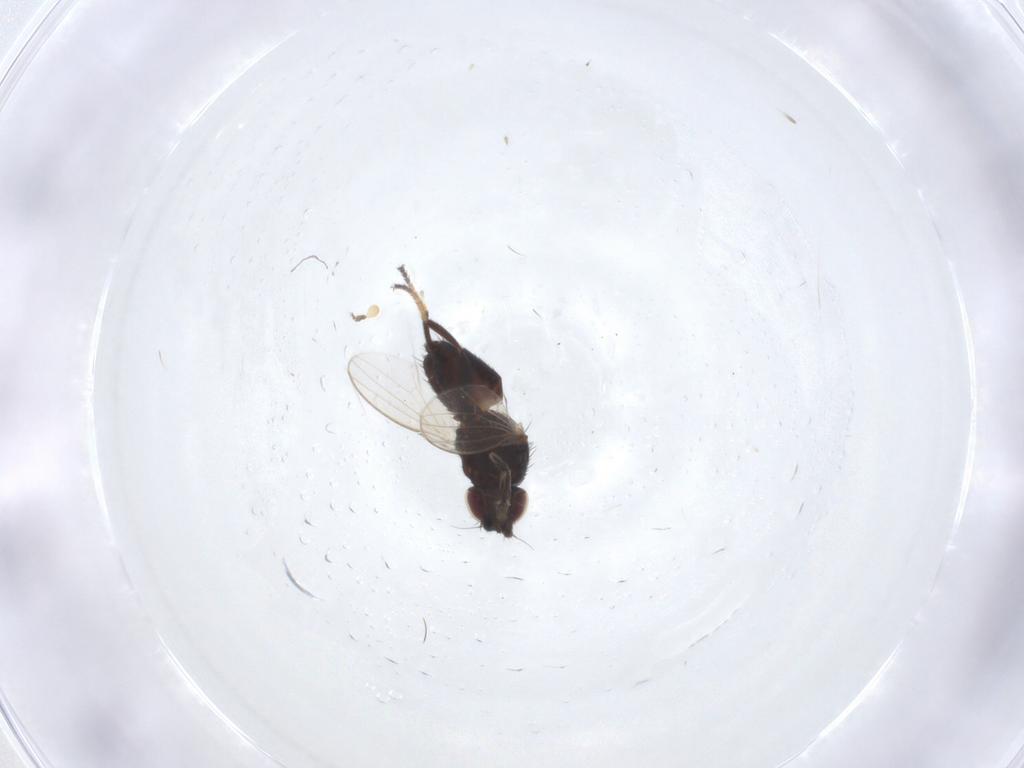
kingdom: Animalia
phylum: Arthropoda
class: Insecta
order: Diptera
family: Milichiidae
